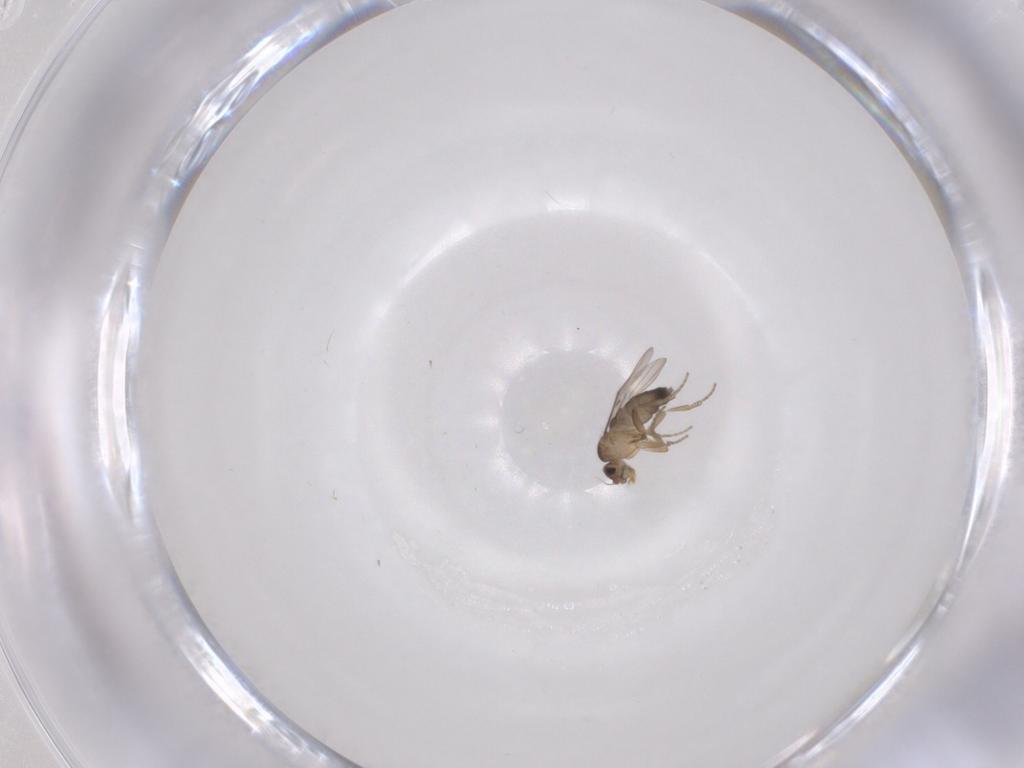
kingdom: Animalia
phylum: Arthropoda
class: Insecta
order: Diptera
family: Phoridae
